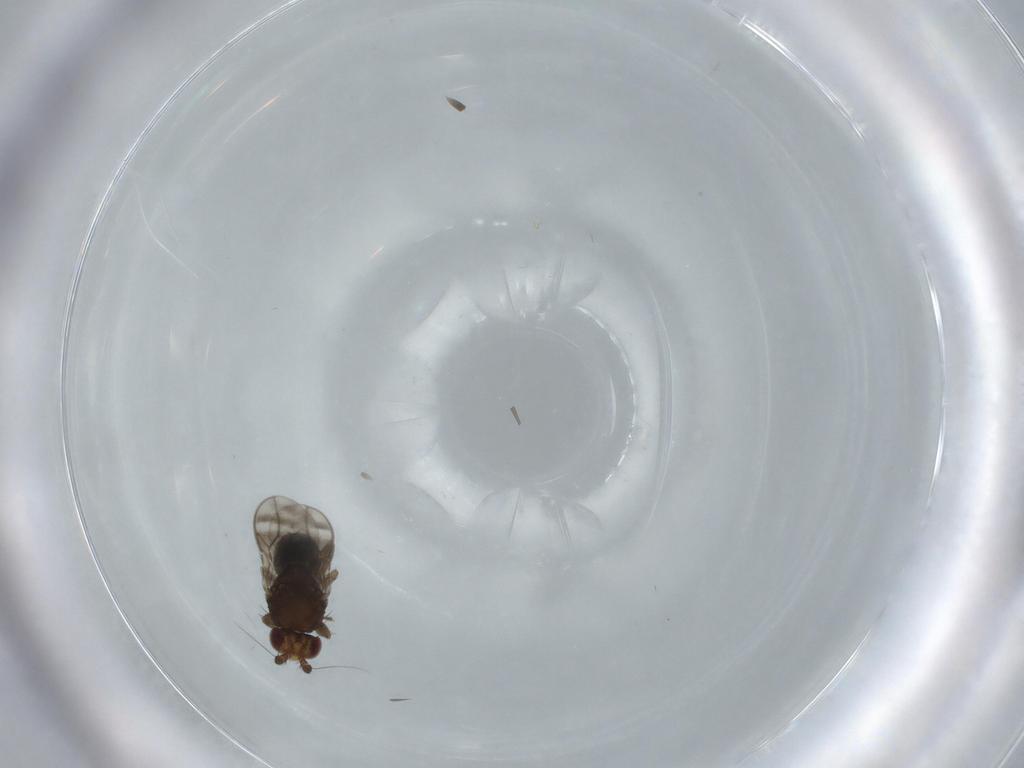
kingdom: Animalia
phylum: Arthropoda
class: Insecta
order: Diptera
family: Sphaeroceridae
